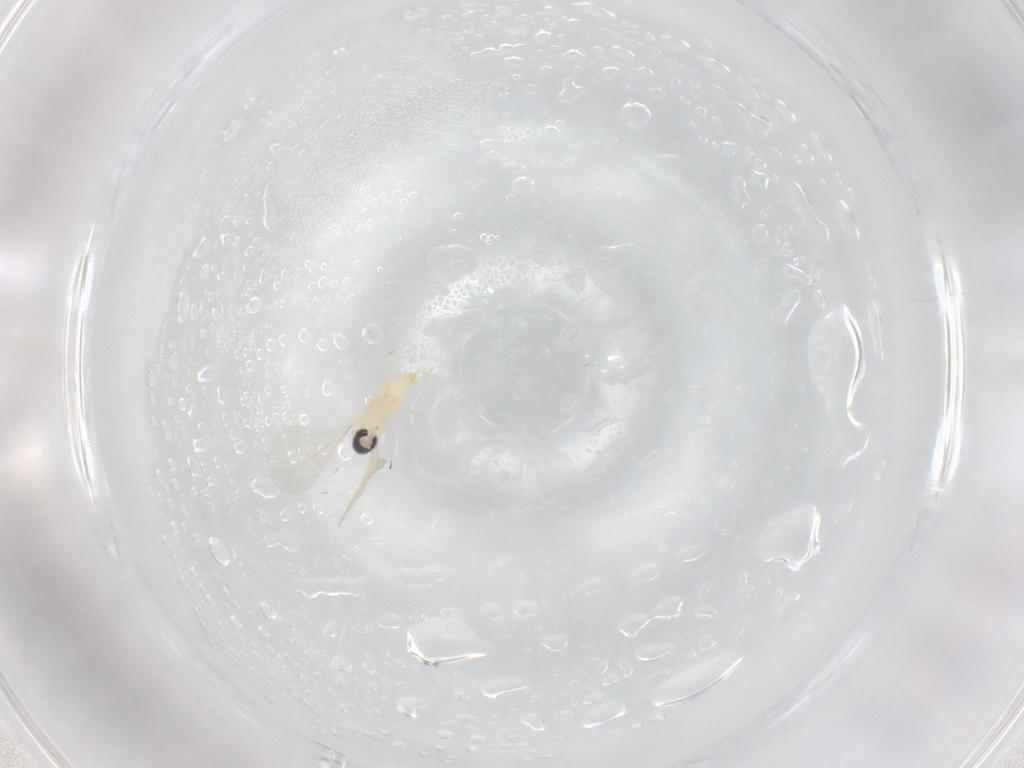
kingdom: Animalia
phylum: Arthropoda
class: Insecta
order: Diptera
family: Cecidomyiidae
